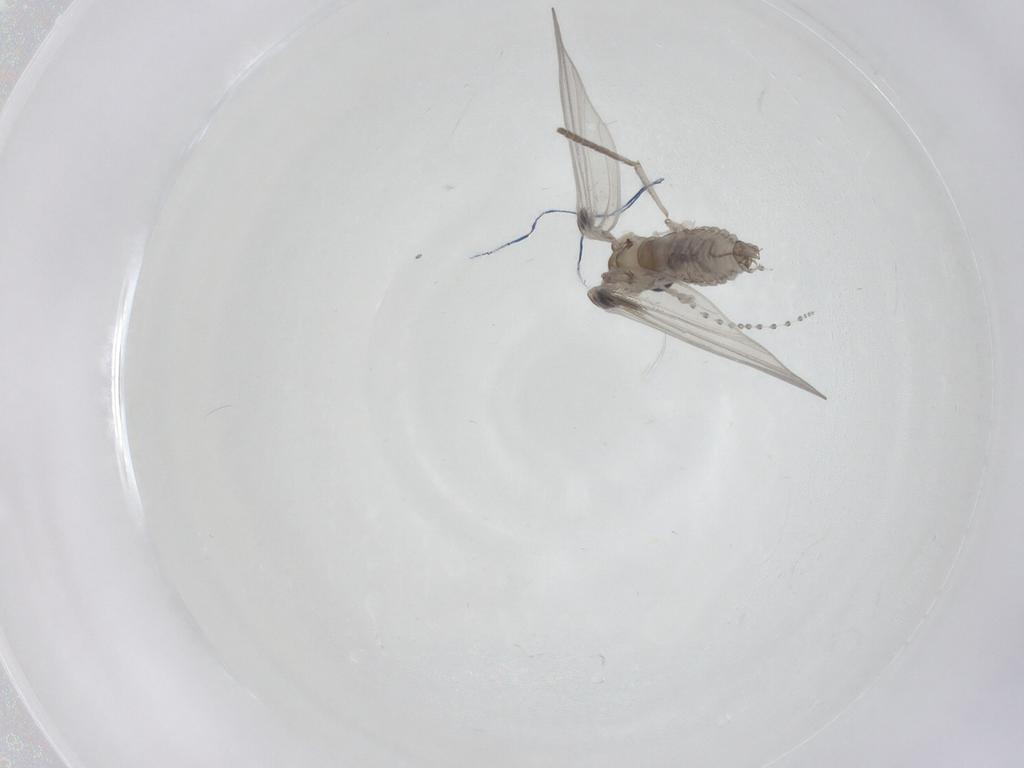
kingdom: Animalia
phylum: Arthropoda
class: Insecta
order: Diptera
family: Psychodidae
